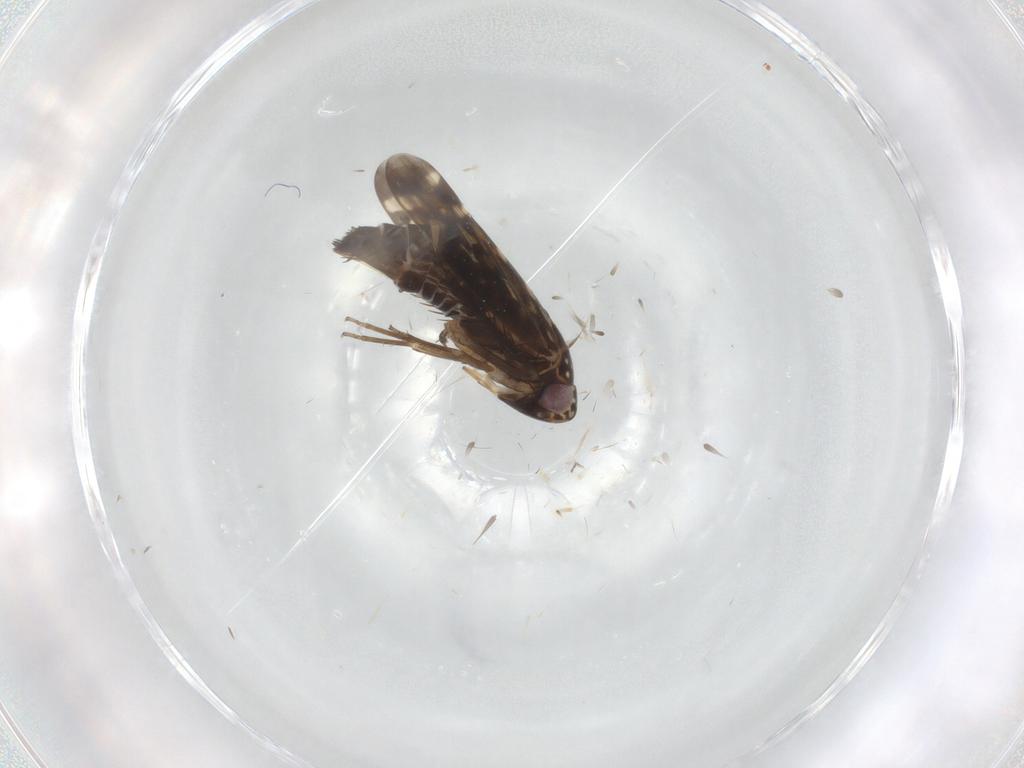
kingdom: Animalia
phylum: Arthropoda
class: Insecta
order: Hemiptera
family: Cicadellidae
